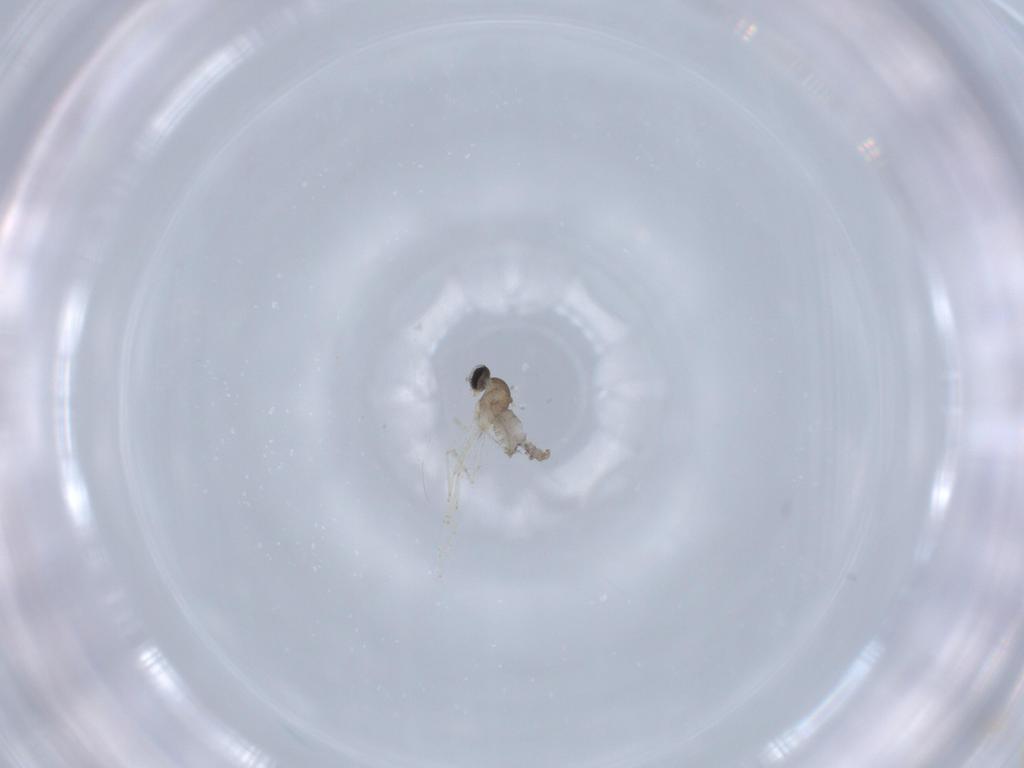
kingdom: Animalia
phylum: Arthropoda
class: Insecta
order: Diptera
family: Cecidomyiidae
